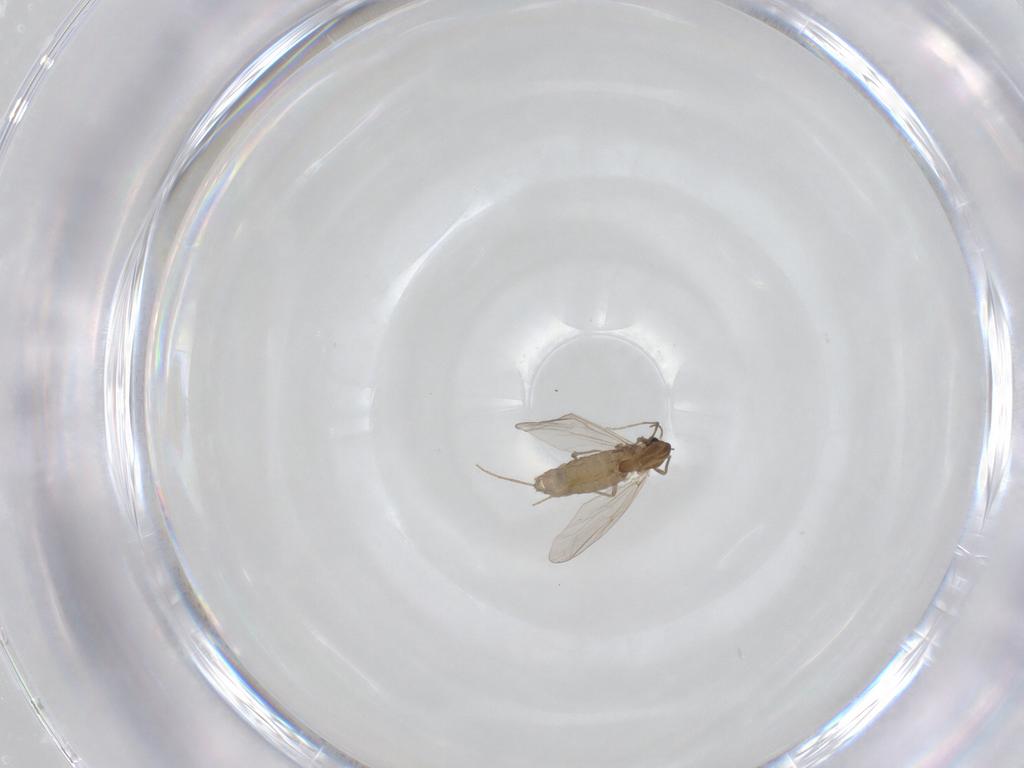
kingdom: Animalia
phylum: Arthropoda
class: Insecta
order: Diptera
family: Chironomidae
